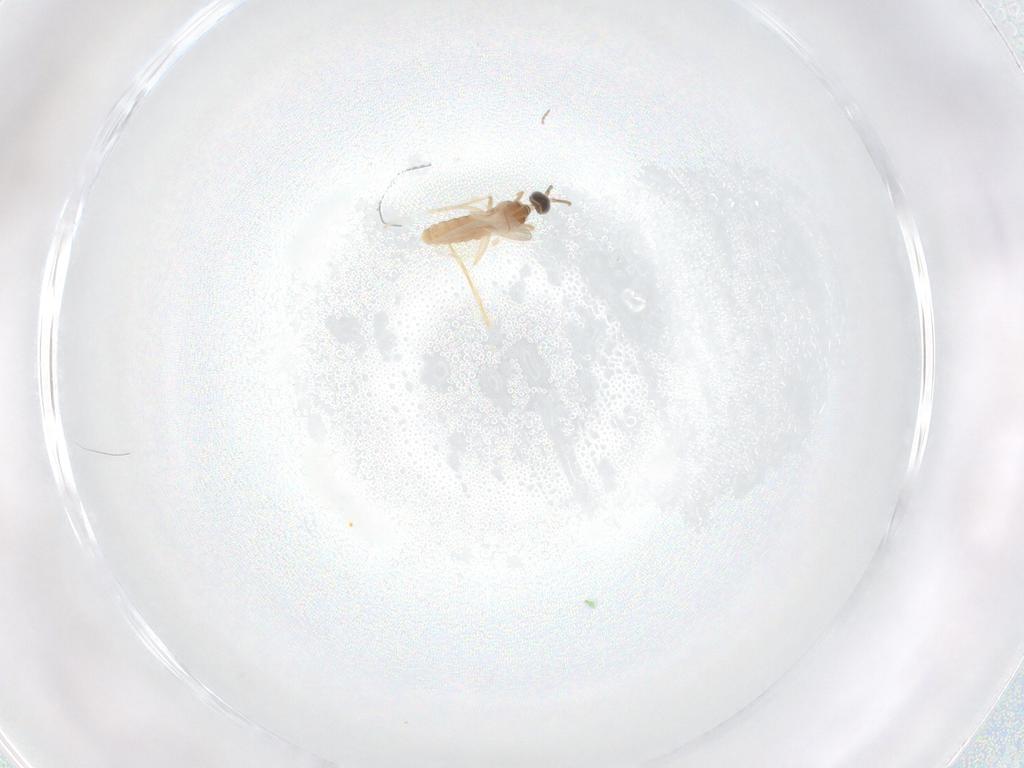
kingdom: Animalia
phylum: Arthropoda
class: Insecta
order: Diptera
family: Cecidomyiidae
